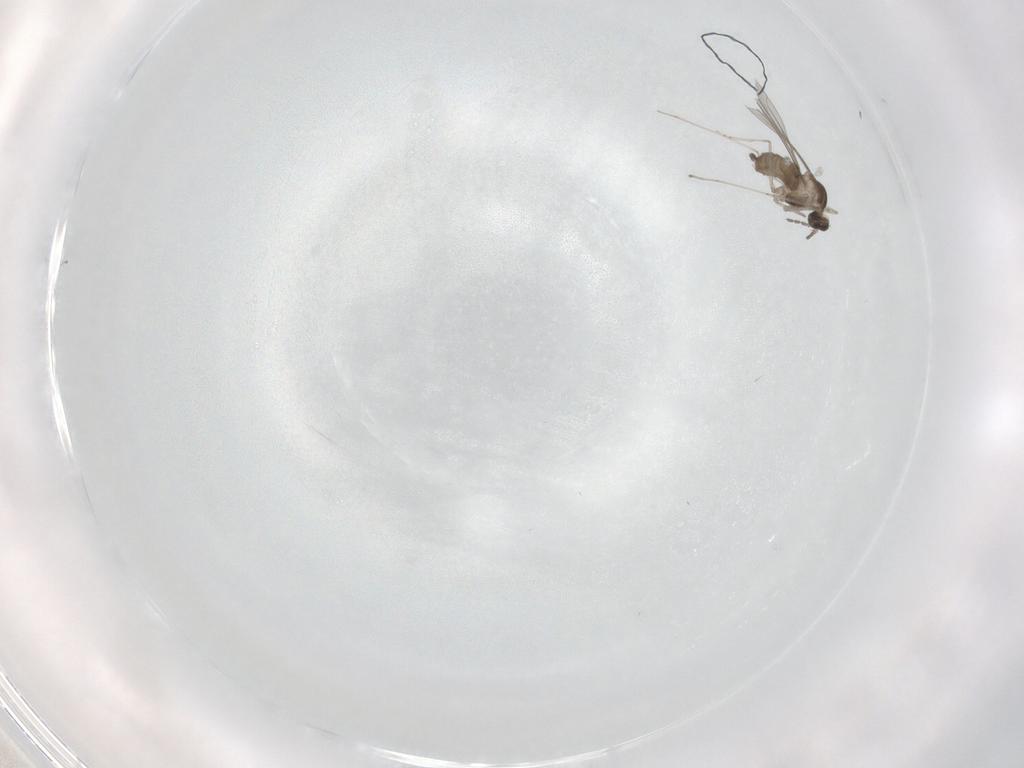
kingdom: Animalia
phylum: Arthropoda
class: Insecta
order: Diptera
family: Cecidomyiidae
